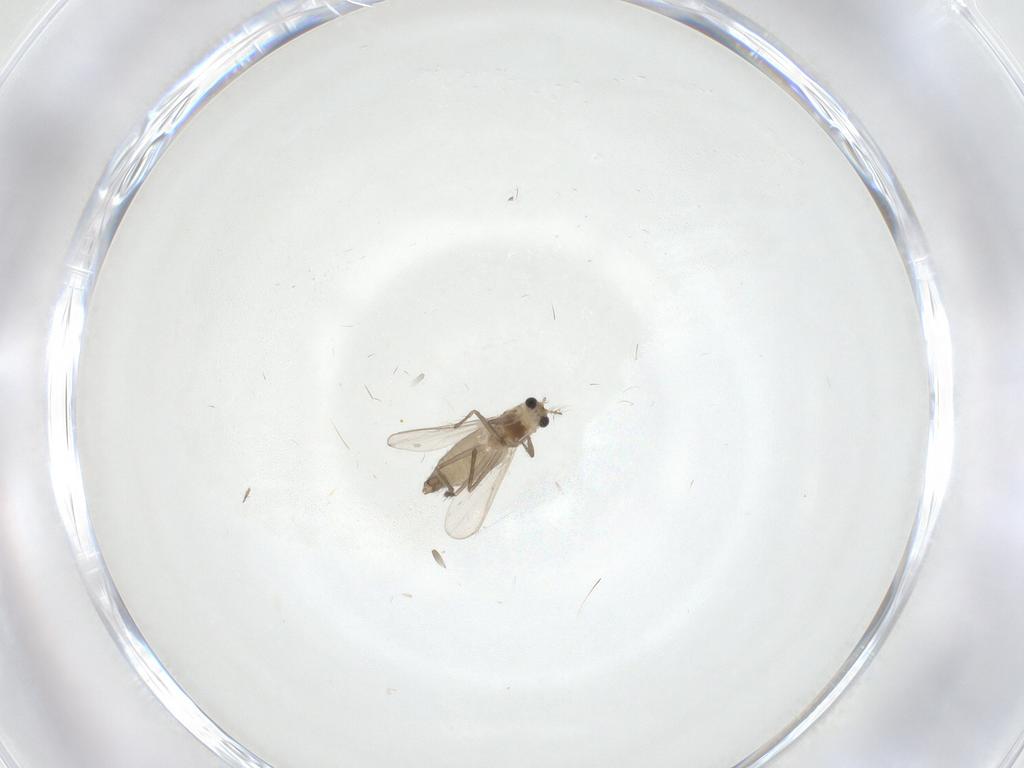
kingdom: Animalia
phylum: Arthropoda
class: Insecta
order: Diptera
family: Chironomidae
